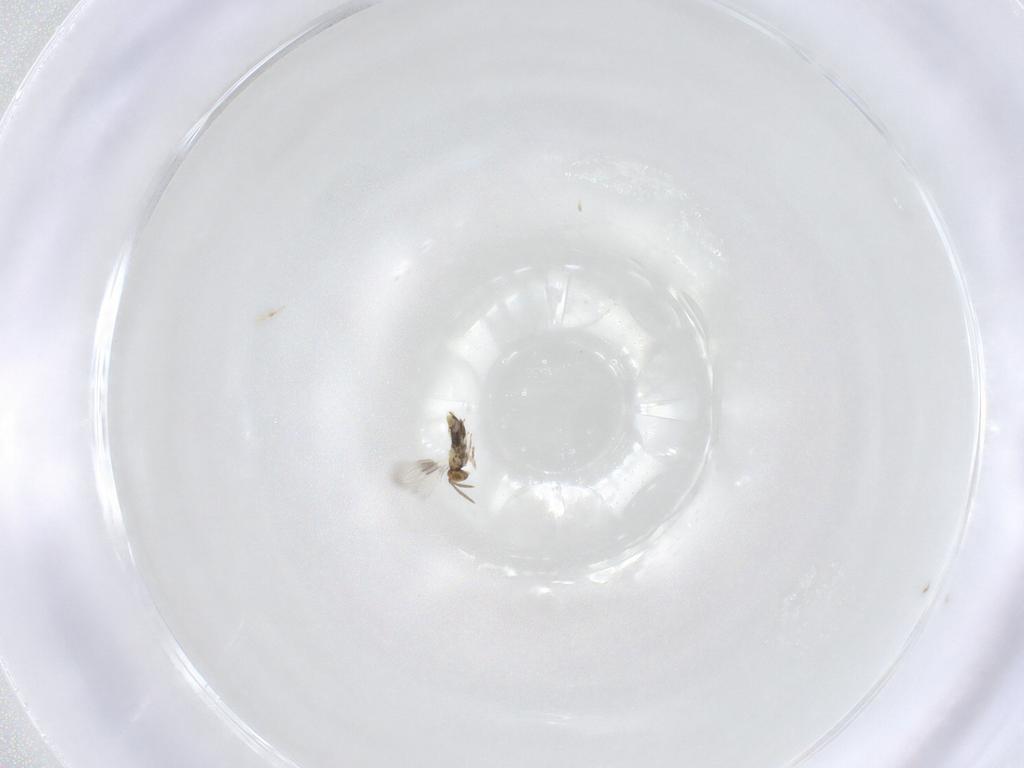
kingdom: Animalia
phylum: Arthropoda
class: Insecta
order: Hymenoptera
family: Aphelinidae
